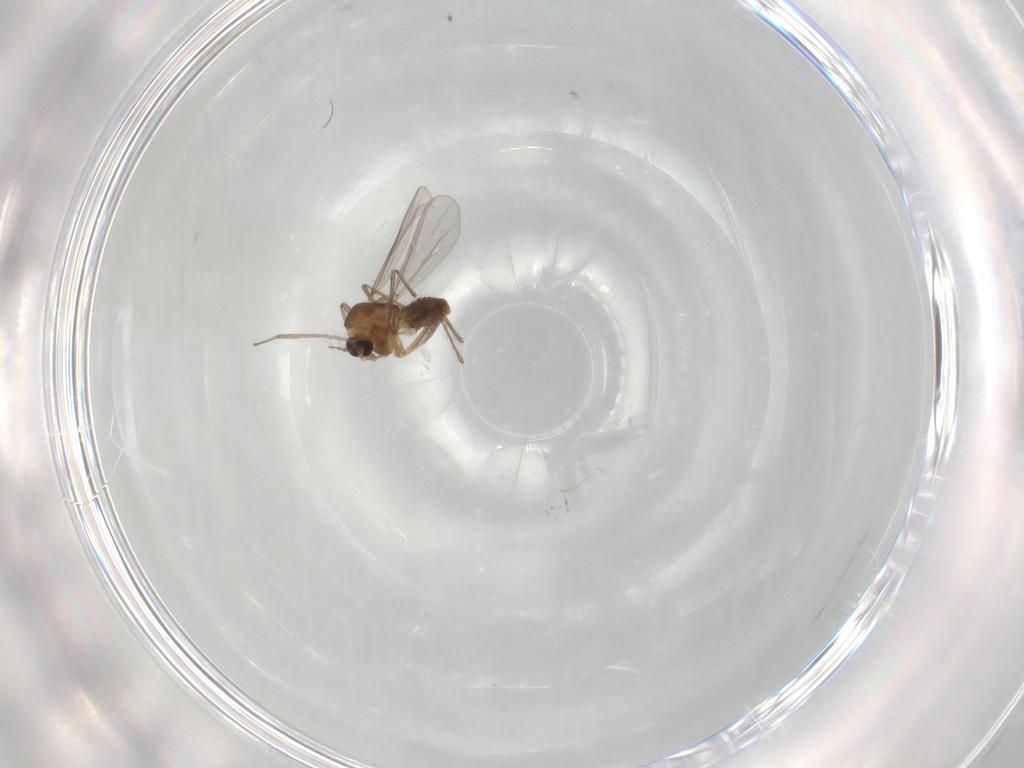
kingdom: Animalia
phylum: Arthropoda
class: Insecta
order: Diptera
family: Chironomidae
